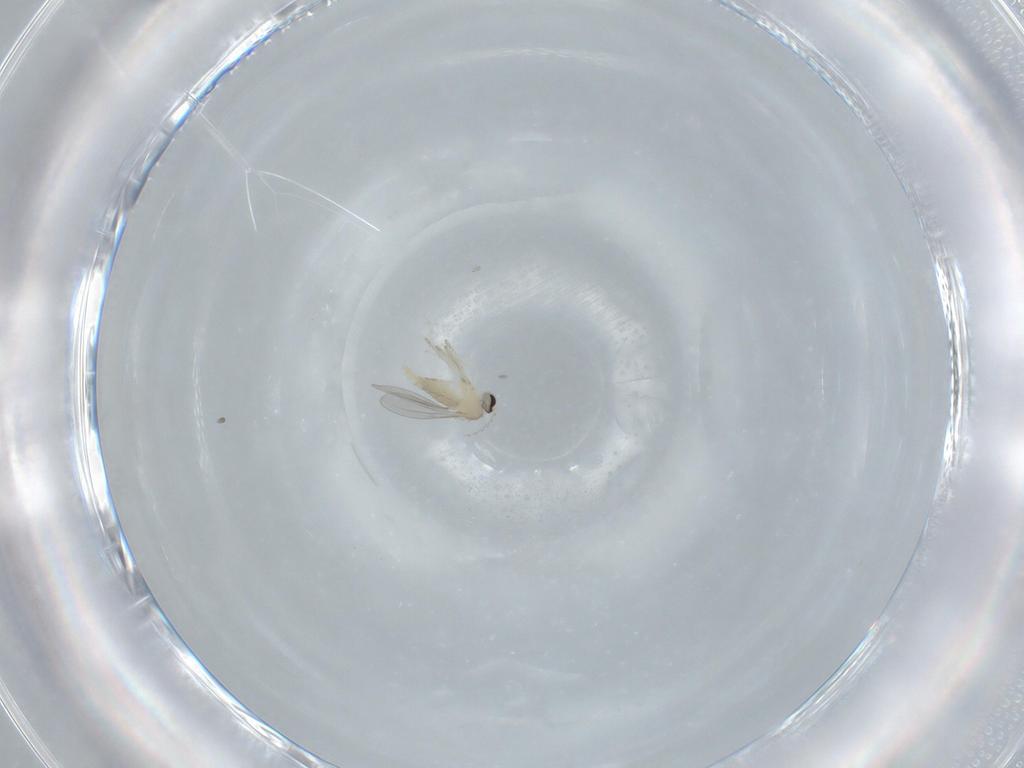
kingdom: Animalia
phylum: Arthropoda
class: Insecta
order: Diptera
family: Cecidomyiidae
